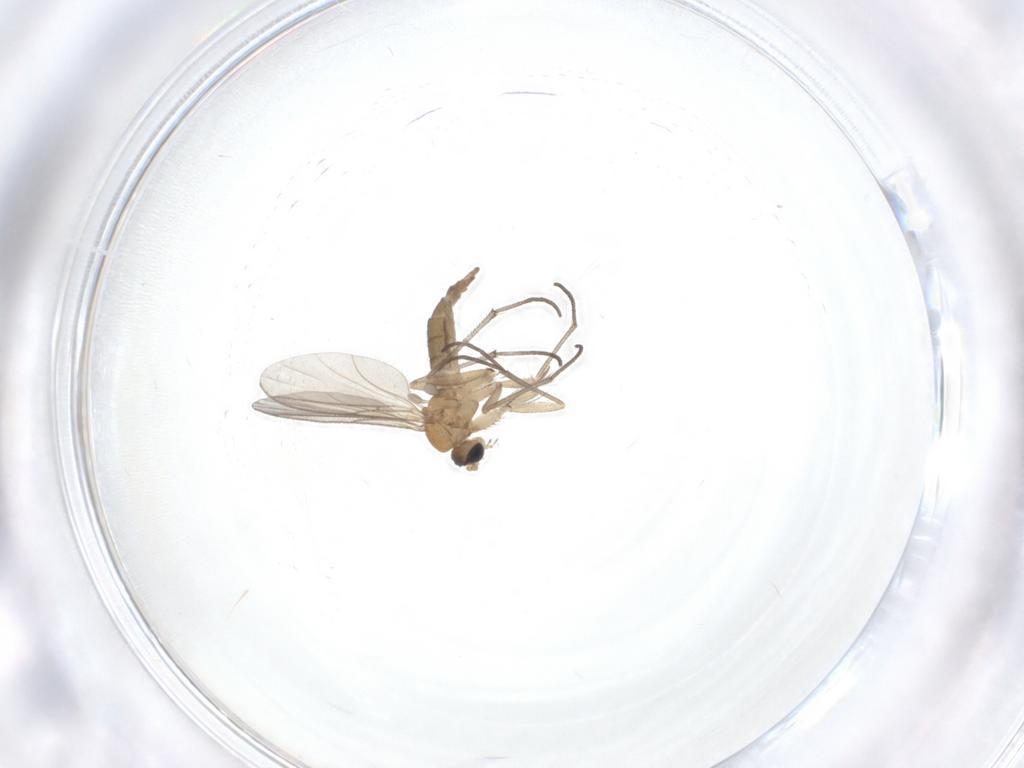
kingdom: Animalia
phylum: Arthropoda
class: Insecta
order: Diptera
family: Sciaridae
